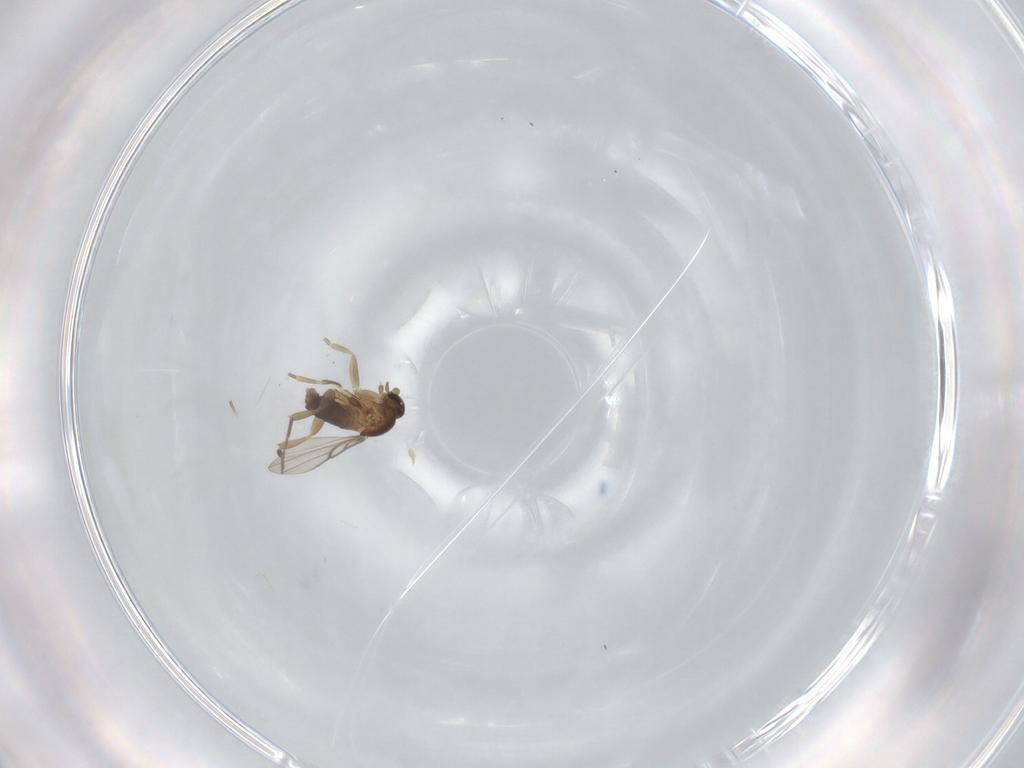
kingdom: Animalia
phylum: Arthropoda
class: Insecta
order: Diptera
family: Phoridae
